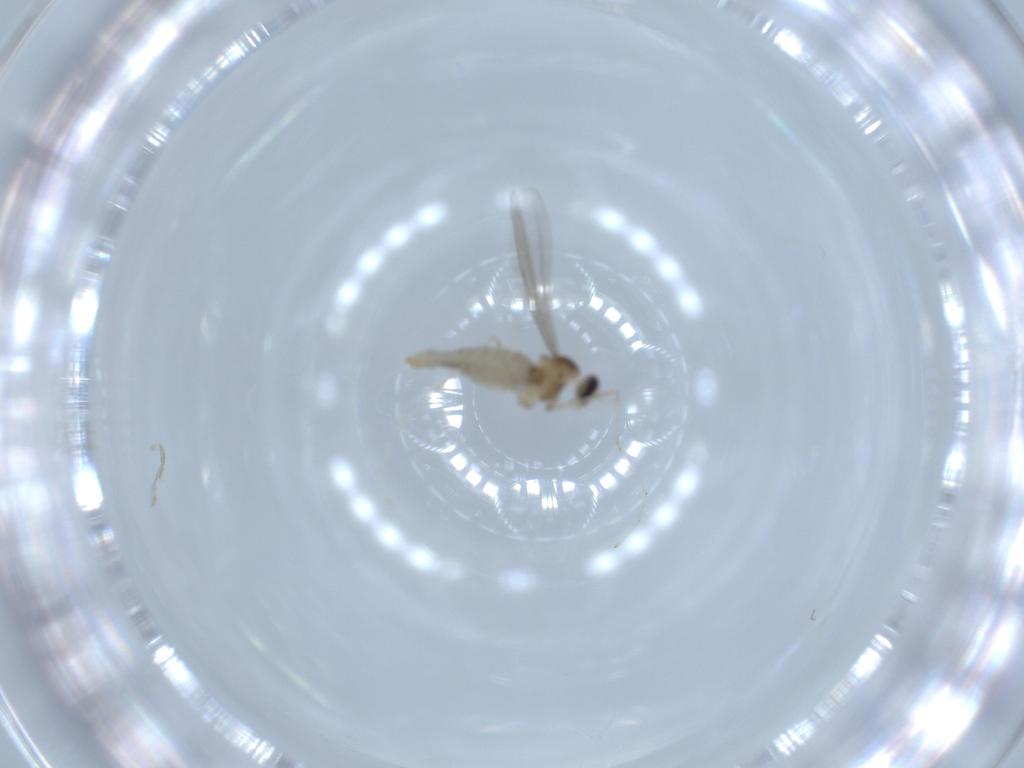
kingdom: Animalia
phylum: Arthropoda
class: Insecta
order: Diptera
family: Cecidomyiidae
